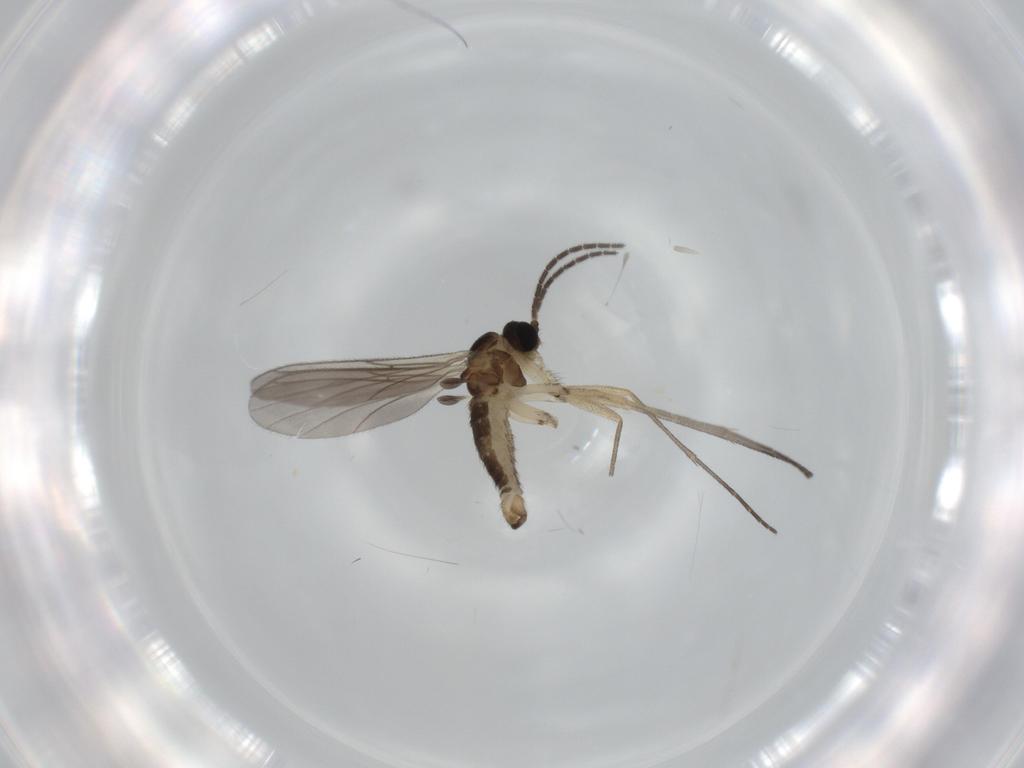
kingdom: Animalia
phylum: Arthropoda
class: Insecta
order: Diptera
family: Sciaridae
